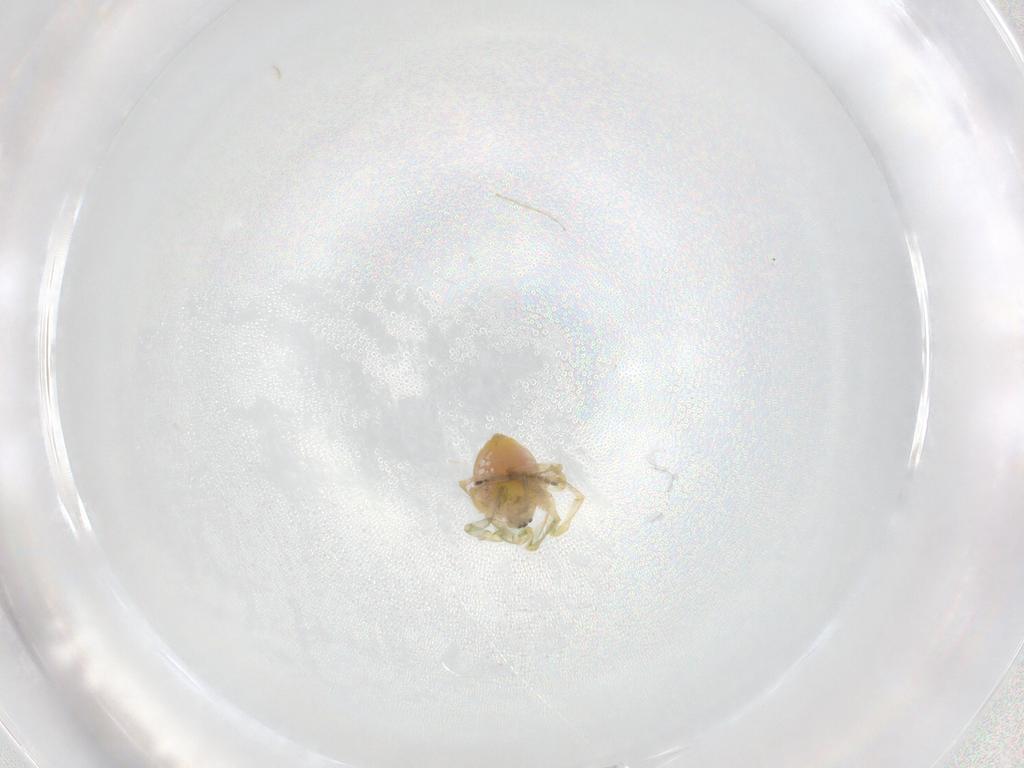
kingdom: Animalia
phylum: Arthropoda
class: Arachnida
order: Araneae
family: Tetragnathidae
